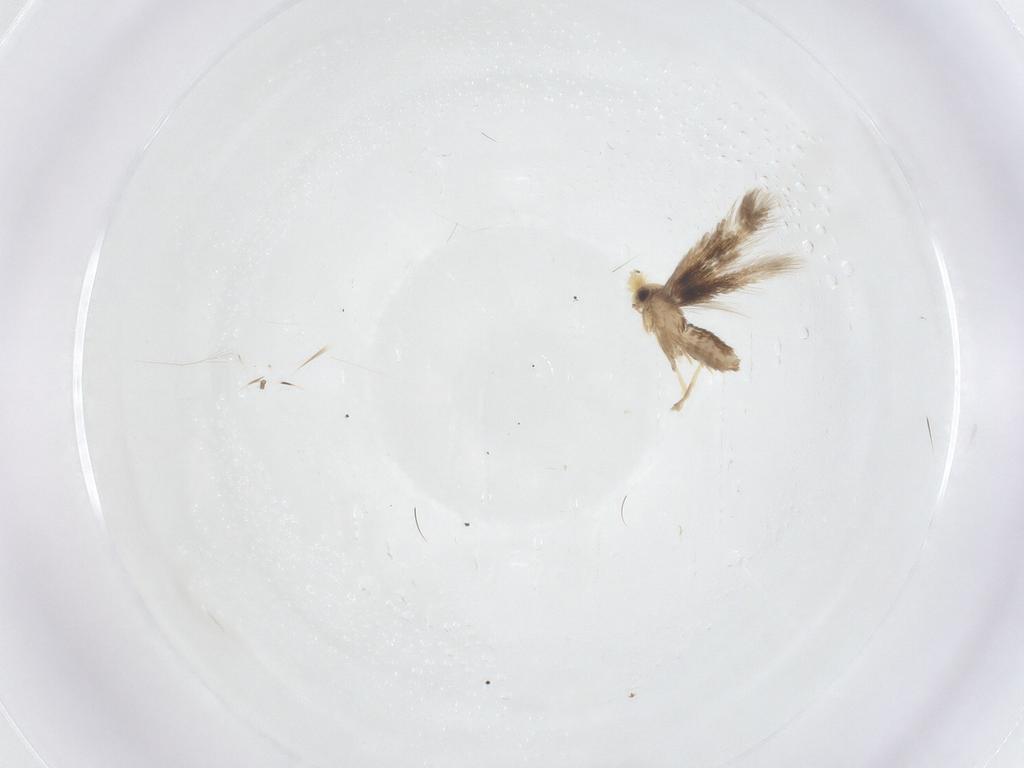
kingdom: Animalia
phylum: Arthropoda
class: Insecta
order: Lepidoptera
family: Nepticulidae
